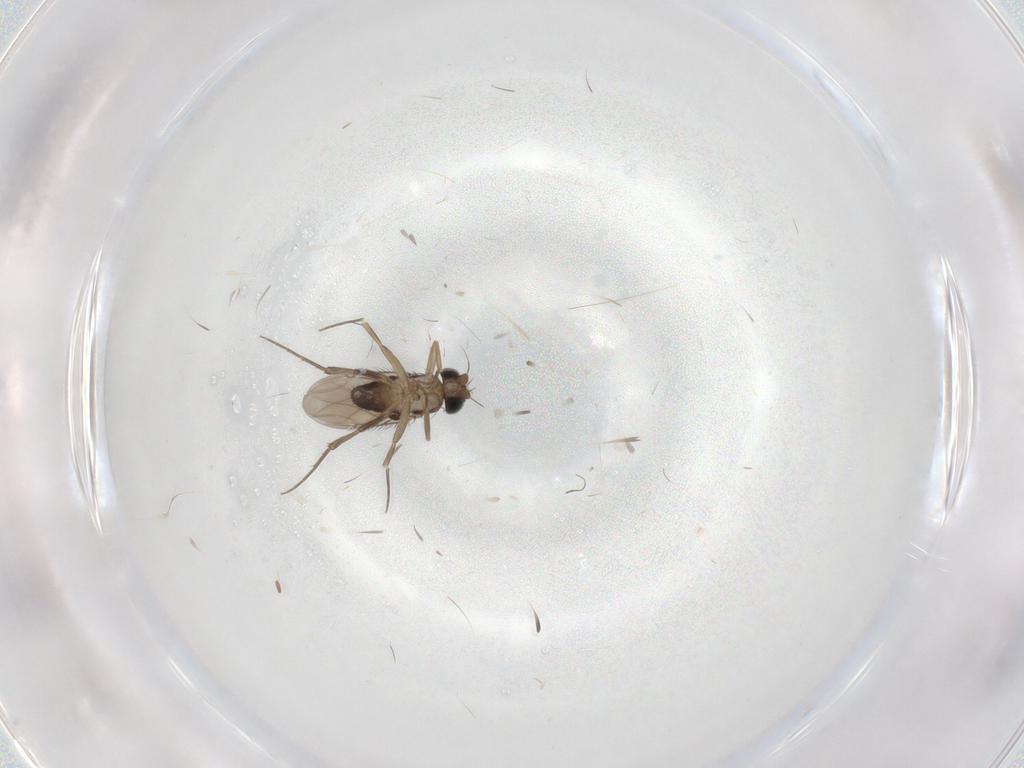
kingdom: Animalia
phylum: Arthropoda
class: Insecta
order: Diptera
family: Phoridae
